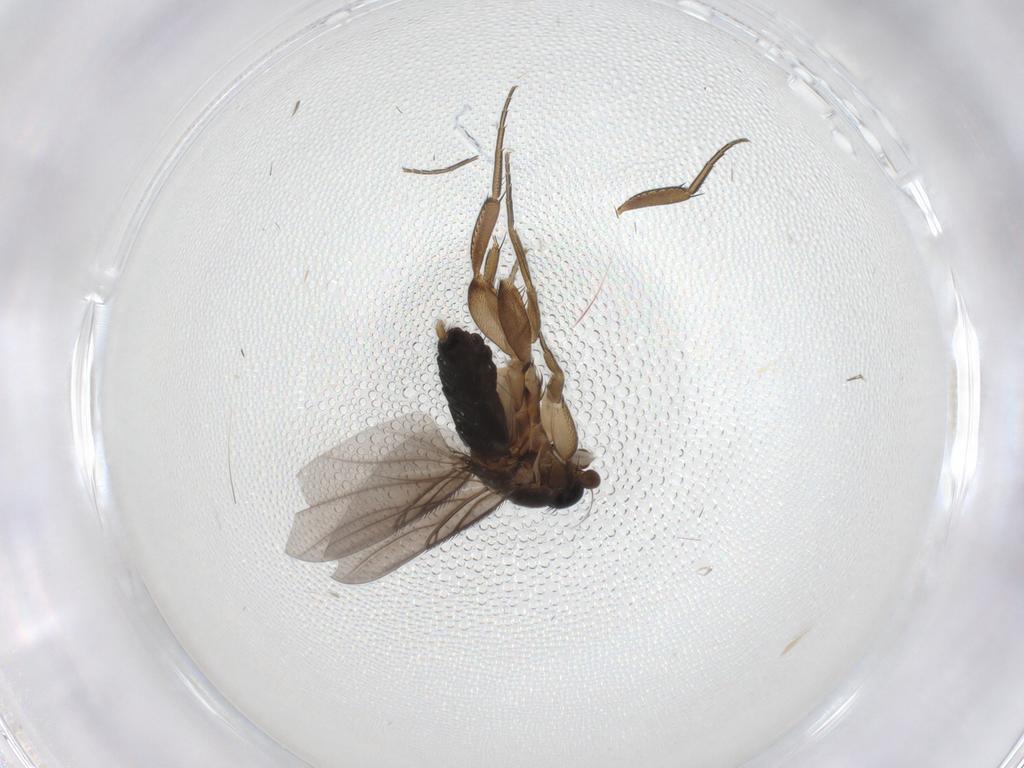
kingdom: Animalia
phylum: Arthropoda
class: Insecta
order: Diptera
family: Phoridae
